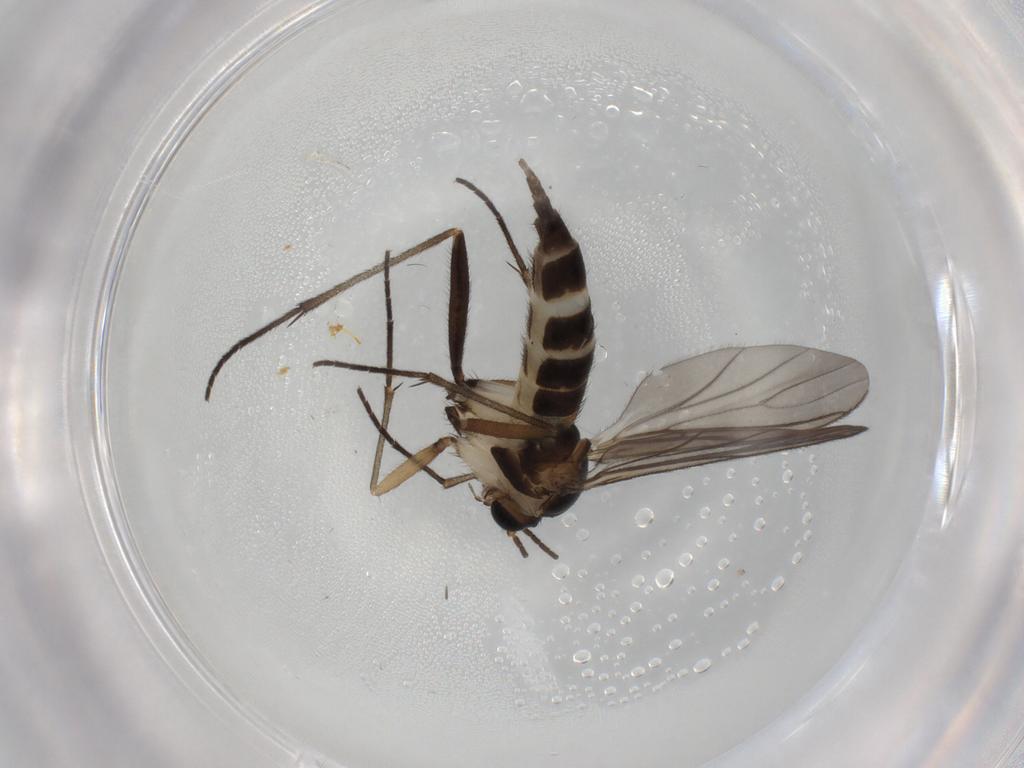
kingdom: Animalia
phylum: Arthropoda
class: Insecta
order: Diptera
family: Sciaridae
